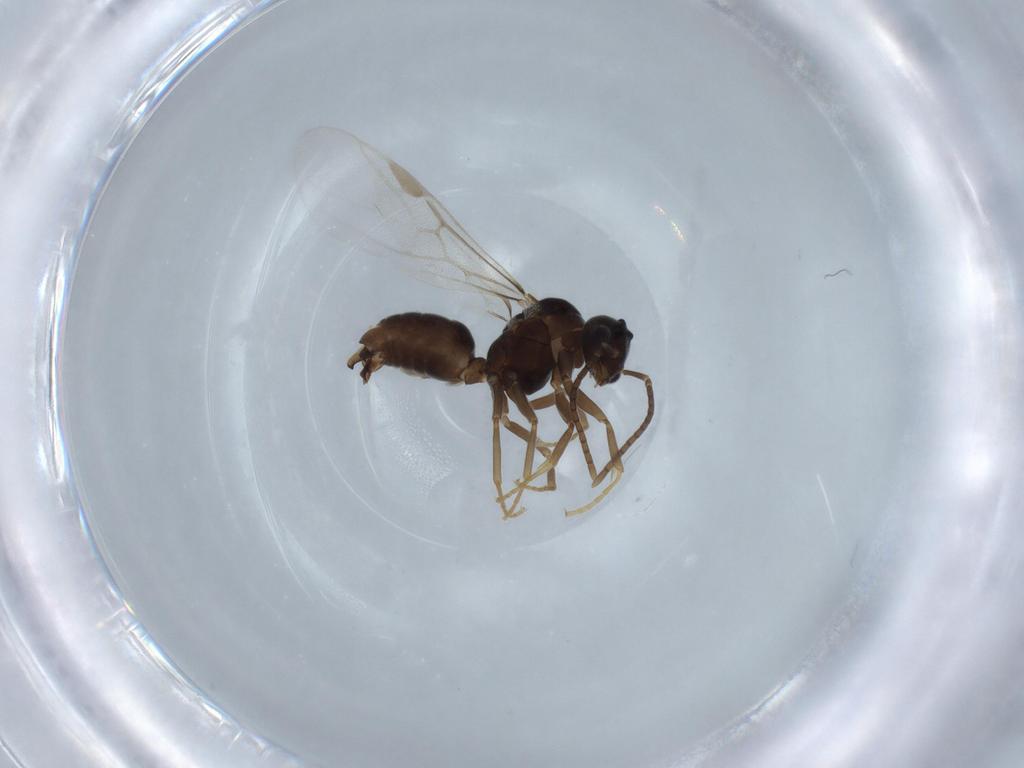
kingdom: Animalia
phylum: Arthropoda
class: Insecta
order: Hymenoptera
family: Formicidae
